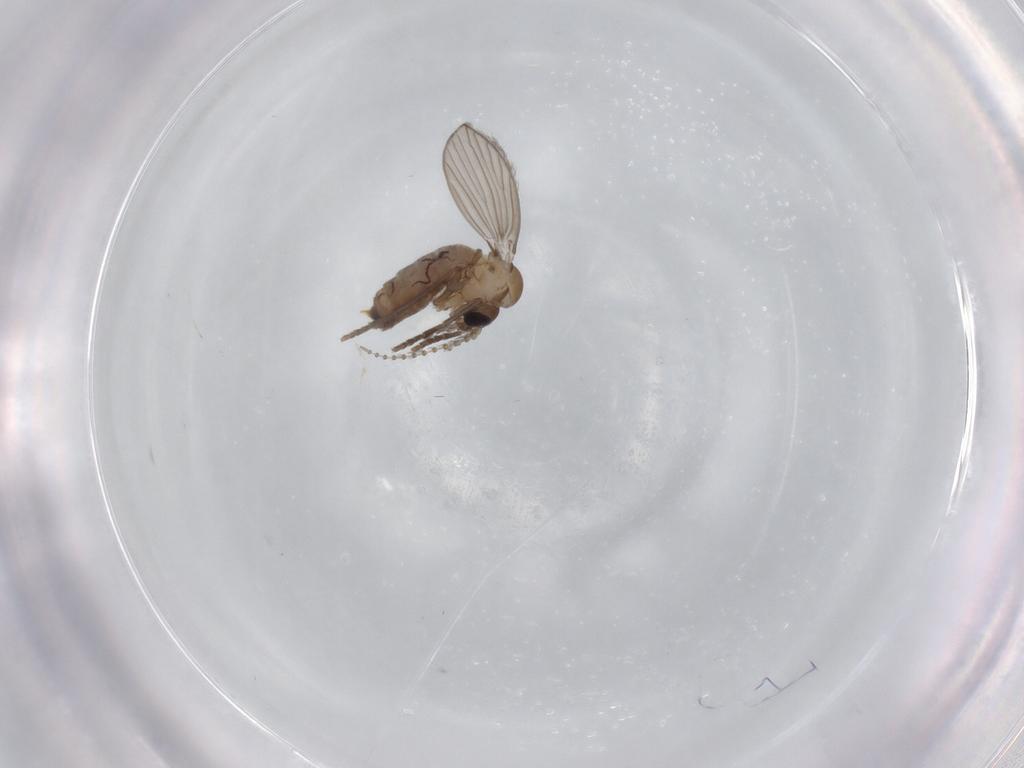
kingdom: Animalia
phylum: Arthropoda
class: Insecta
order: Diptera
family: Psychodidae
